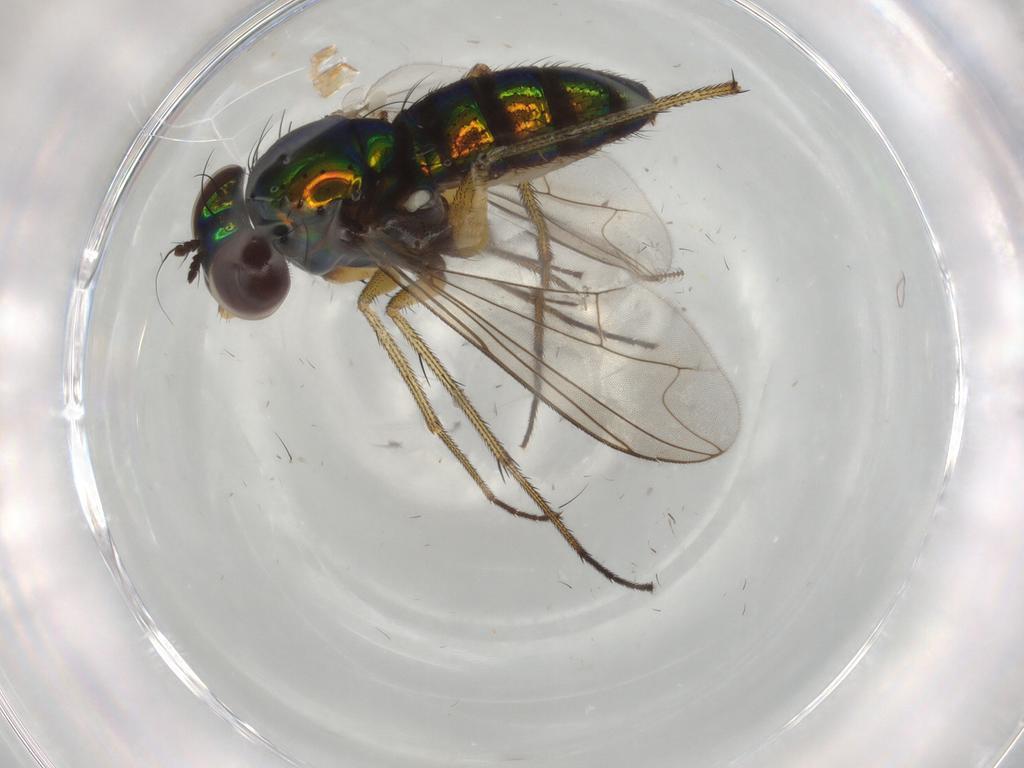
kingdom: Animalia
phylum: Arthropoda
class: Insecta
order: Diptera
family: Dolichopodidae
